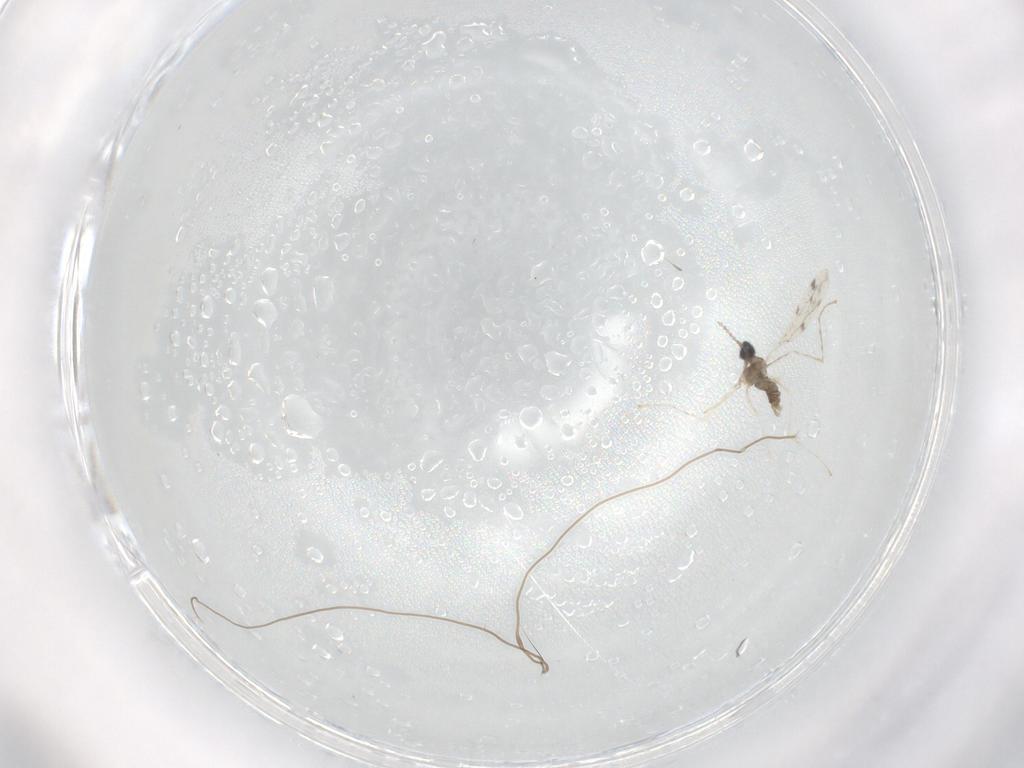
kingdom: Animalia
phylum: Arthropoda
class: Insecta
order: Diptera
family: Cecidomyiidae
